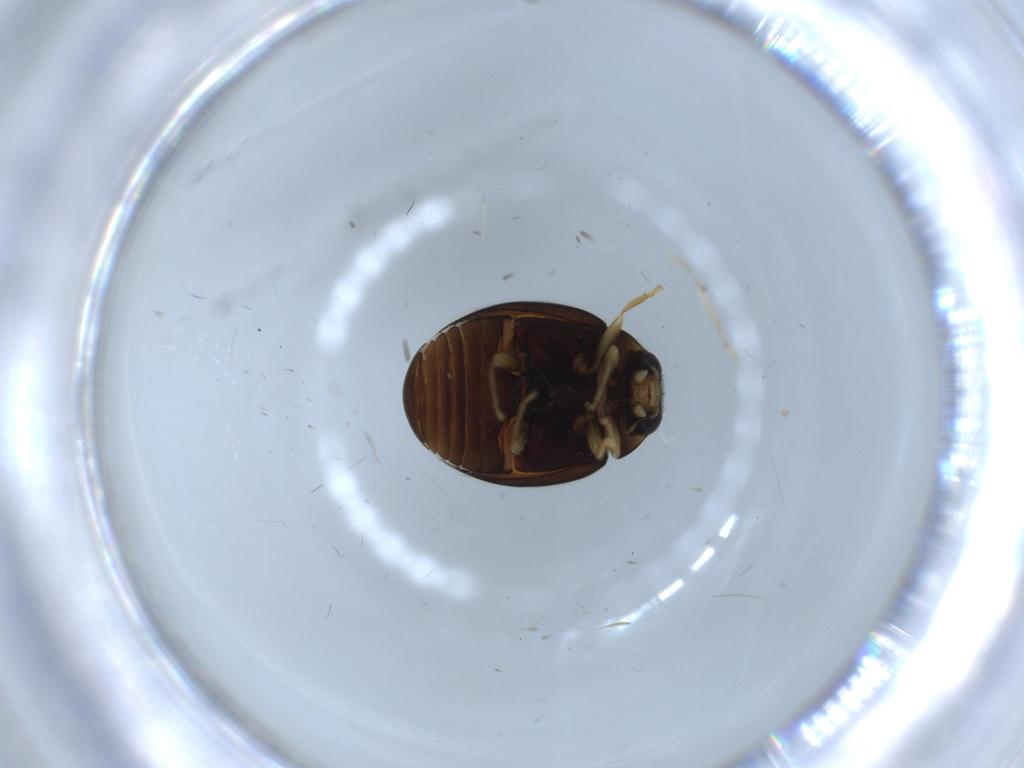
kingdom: Animalia
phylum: Arthropoda
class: Insecta
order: Coleoptera
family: Coccinellidae
